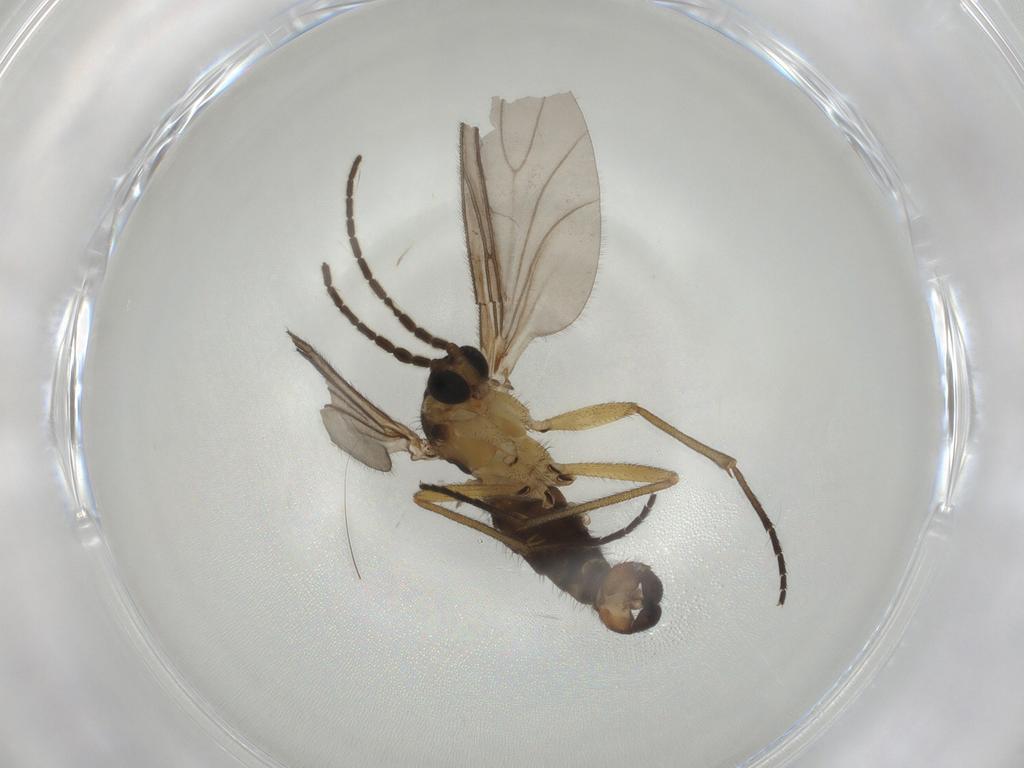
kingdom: Animalia
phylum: Arthropoda
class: Insecta
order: Diptera
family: Sciaridae
